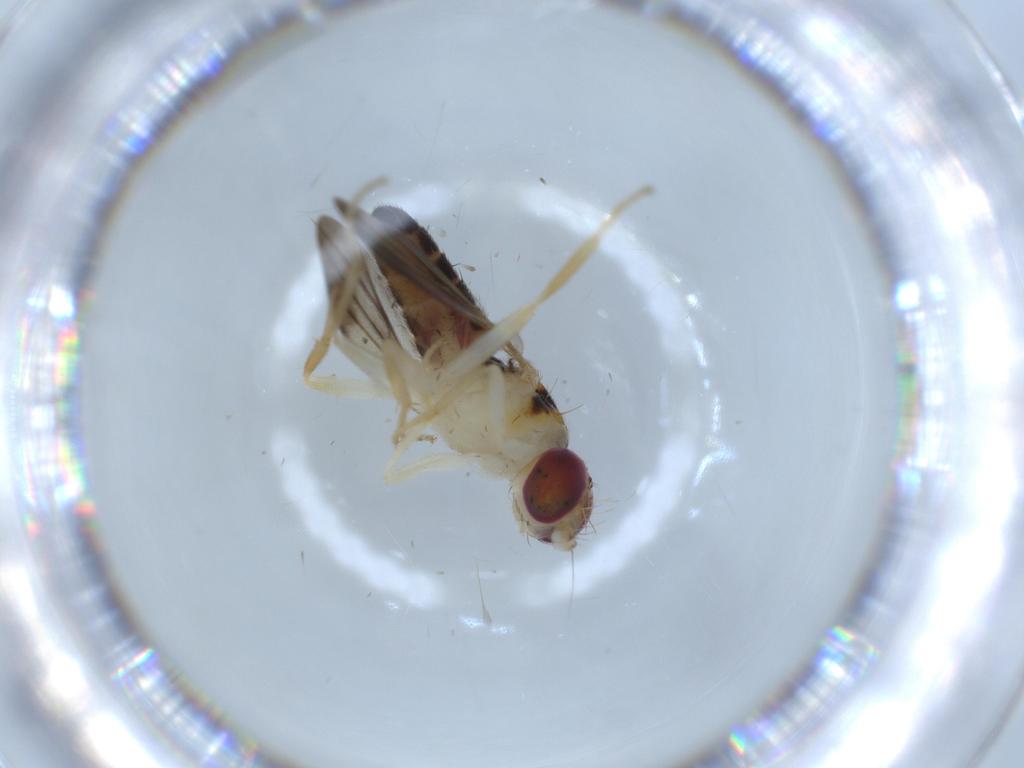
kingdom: Animalia
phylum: Arthropoda
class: Insecta
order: Diptera
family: Clusiidae
